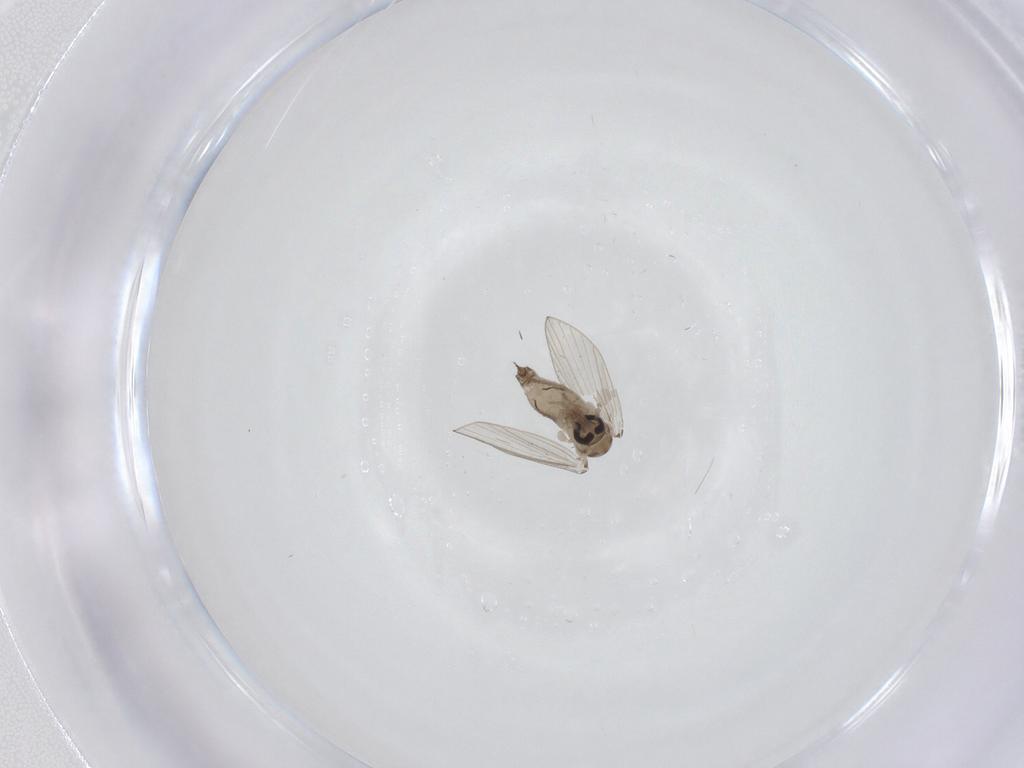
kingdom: Animalia
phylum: Arthropoda
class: Insecta
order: Diptera
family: Psychodidae
